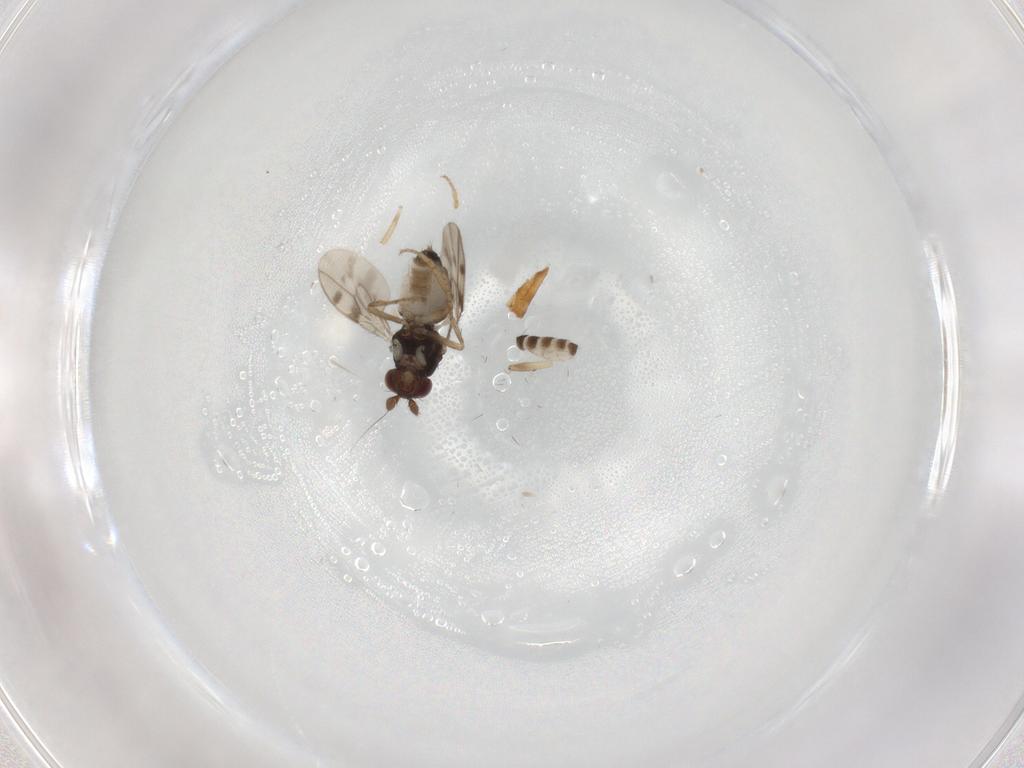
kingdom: Animalia
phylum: Arthropoda
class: Insecta
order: Diptera
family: Sphaeroceridae
